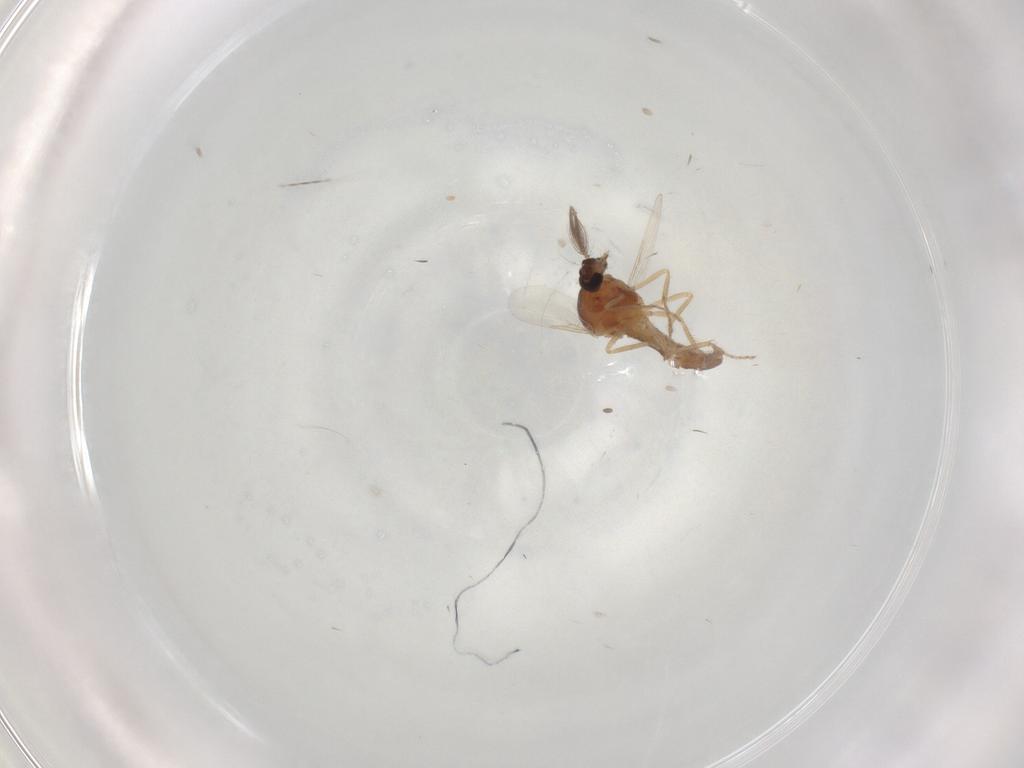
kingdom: Animalia
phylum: Arthropoda
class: Insecta
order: Diptera
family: Ceratopogonidae
